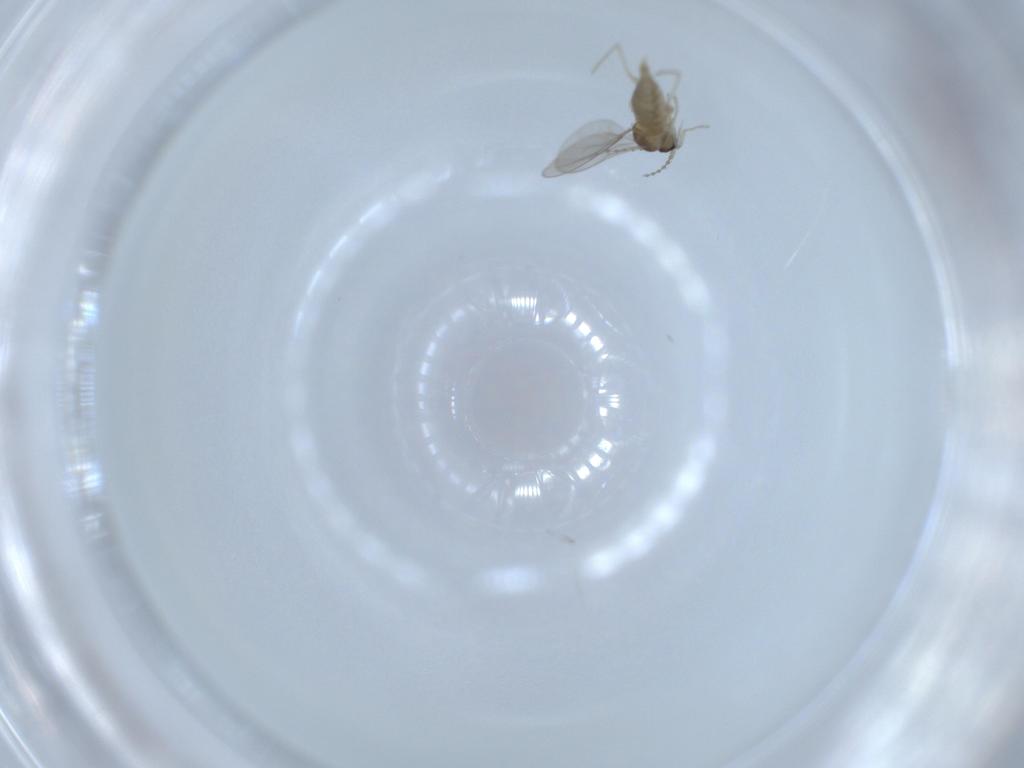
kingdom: Animalia
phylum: Arthropoda
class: Insecta
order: Diptera
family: Cecidomyiidae
